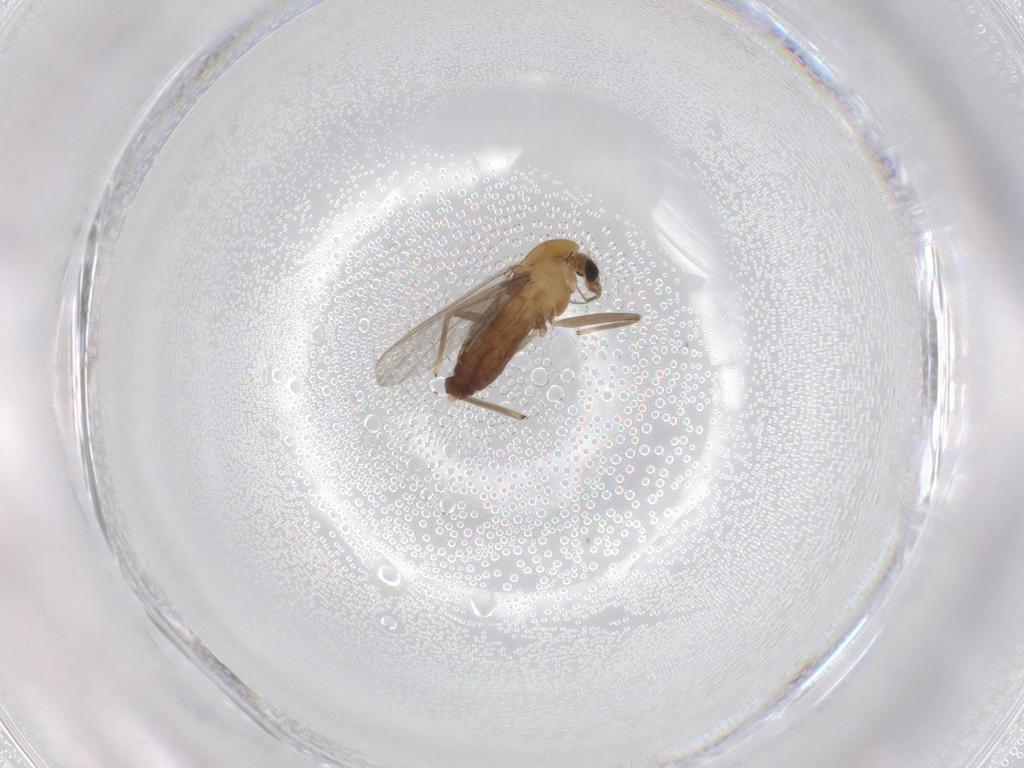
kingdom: Animalia
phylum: Arthropoda
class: Insecta
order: Diptera
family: Chironomidae
